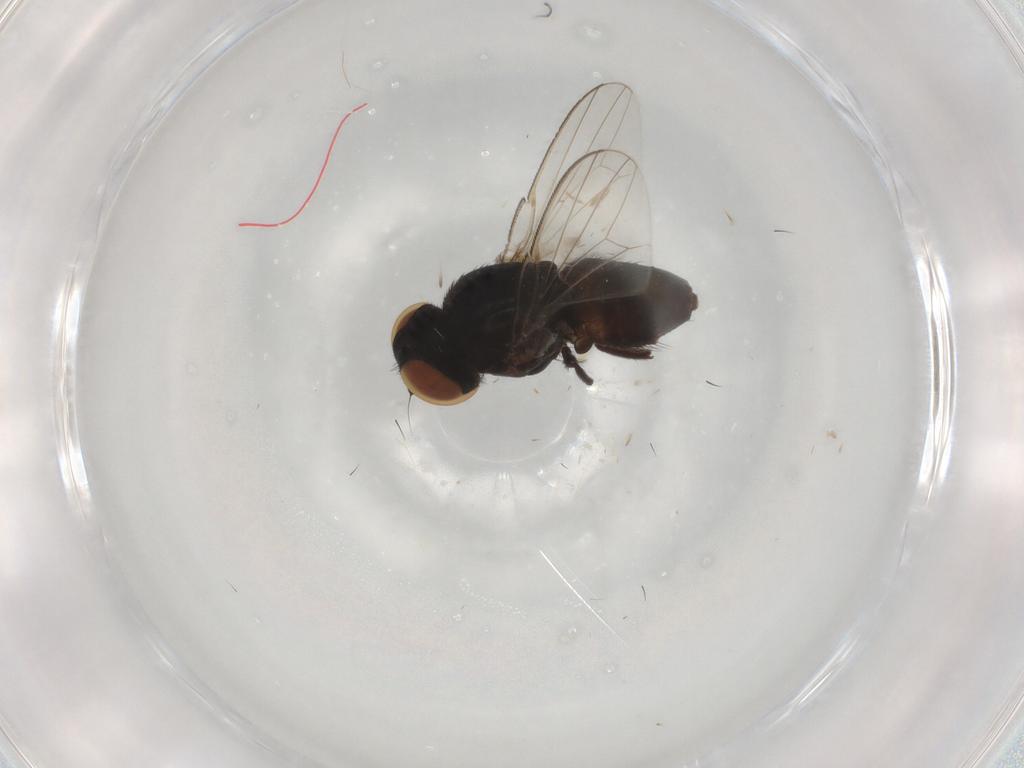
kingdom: Animalia
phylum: Arthropoda
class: Insecta
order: Diptera
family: Milichiidae
